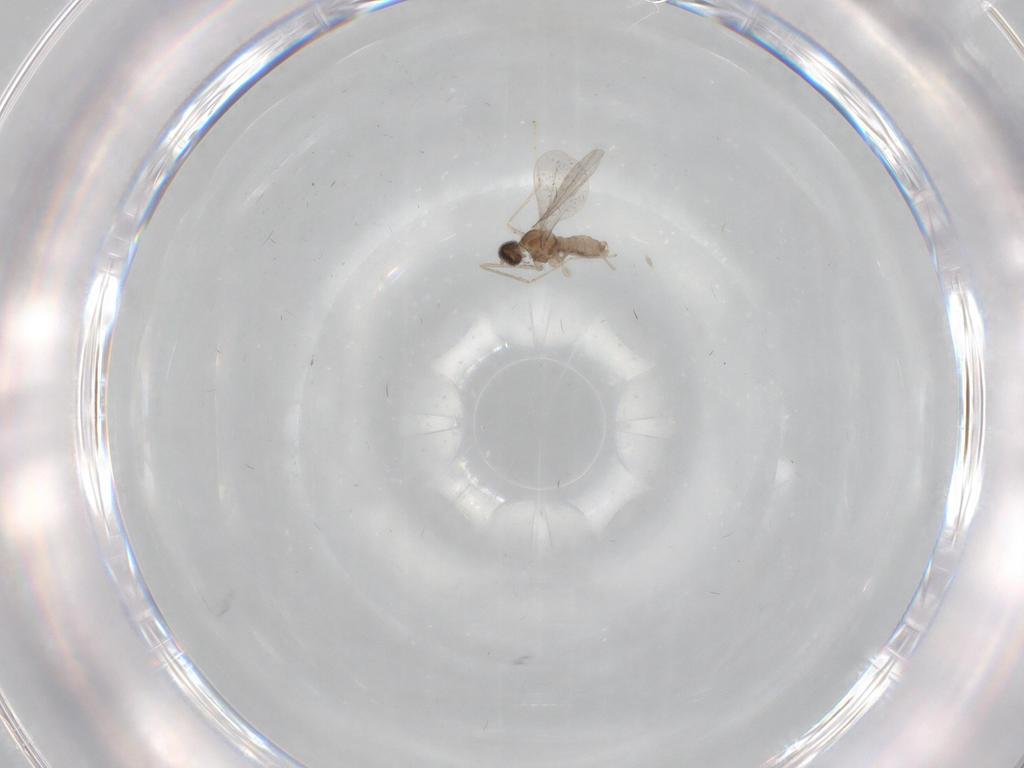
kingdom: Animalia
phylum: Arthropoda
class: Insecta
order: Diptera
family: Cecidomyiidae
